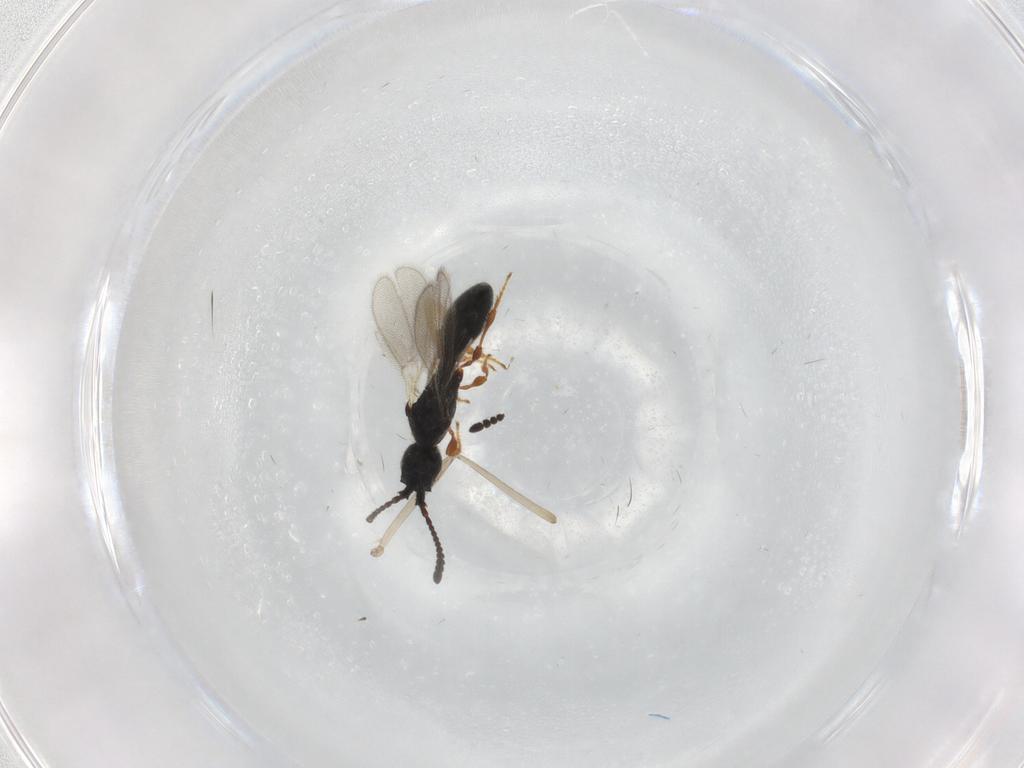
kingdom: Animalia
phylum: Arthropoda
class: Insecta
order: Hymenoptera
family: Diapriidae
